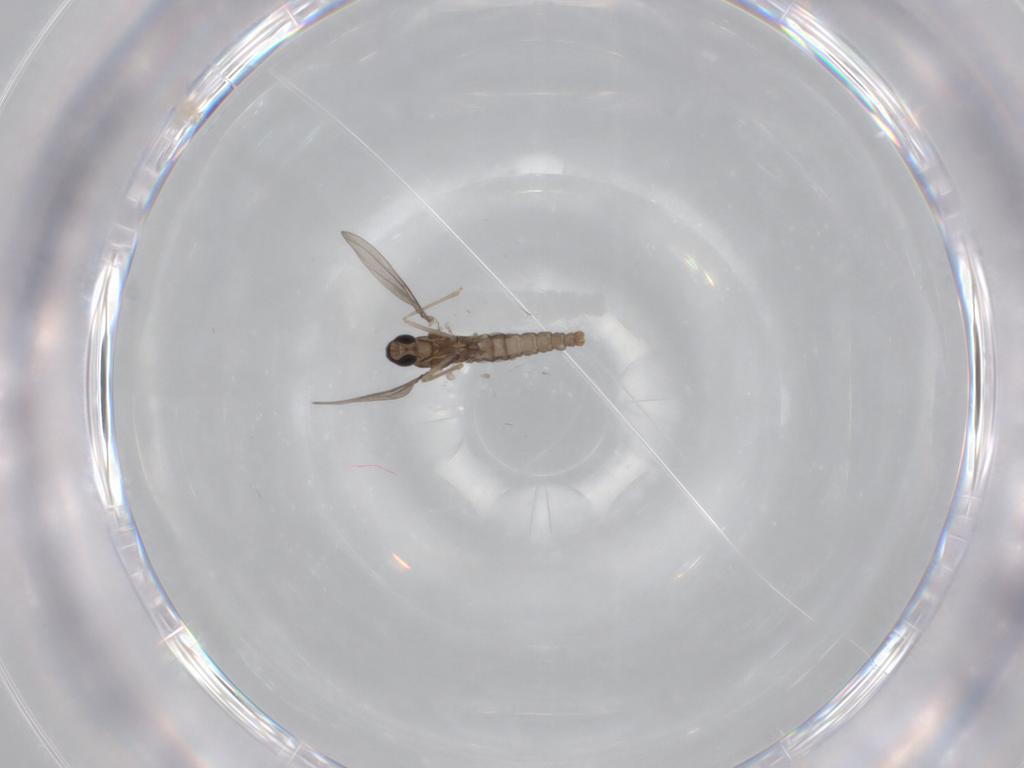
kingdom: Animalia
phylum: Arthropoda
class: Insecta
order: Diptera
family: Cecidomyiidae
